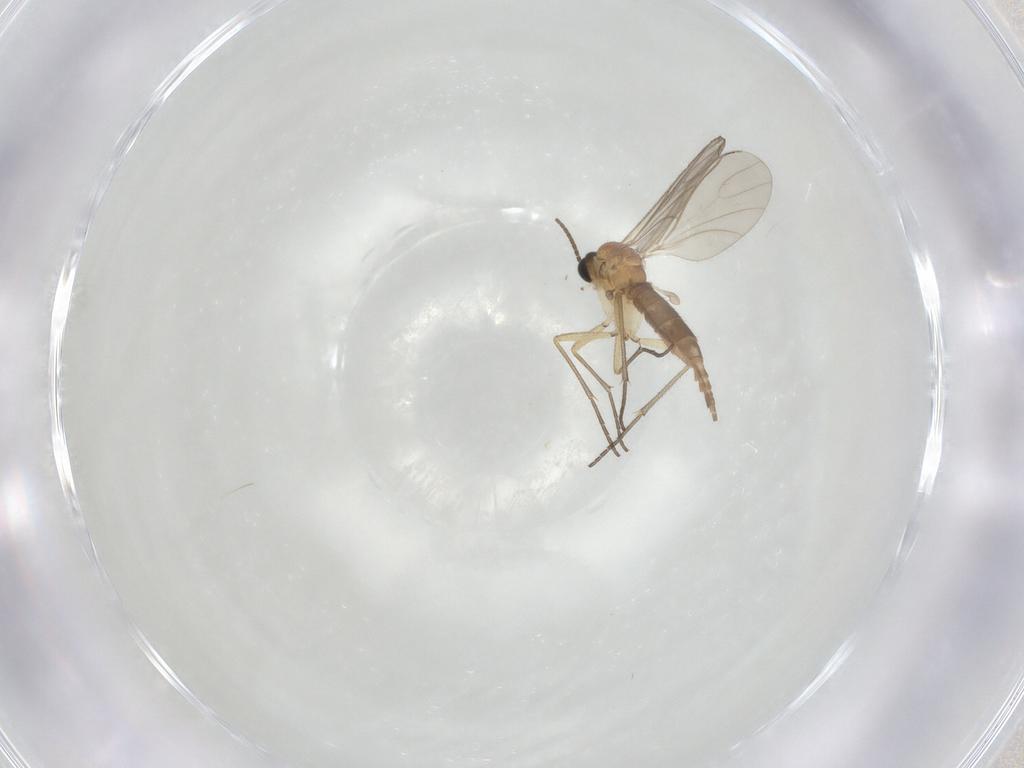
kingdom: Animalia
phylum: Arthropoda
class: Insecta
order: Diptera
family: Sciaridae
